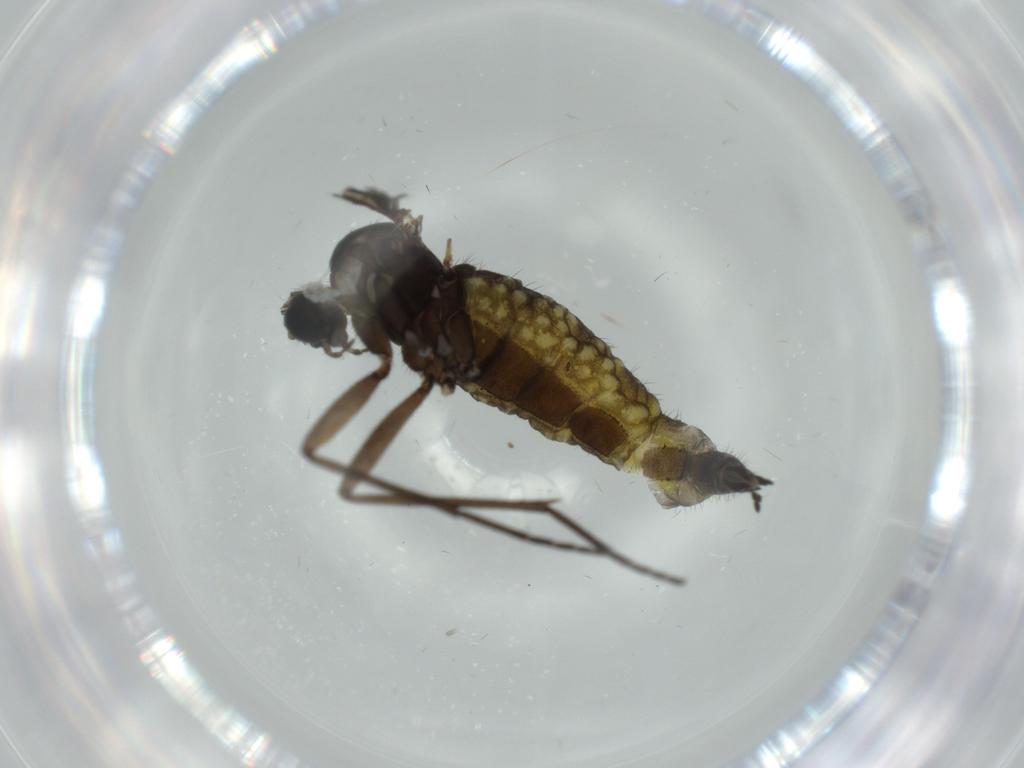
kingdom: Animalia
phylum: Arthropoda
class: Insecta
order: Diptera
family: Sciaridae
